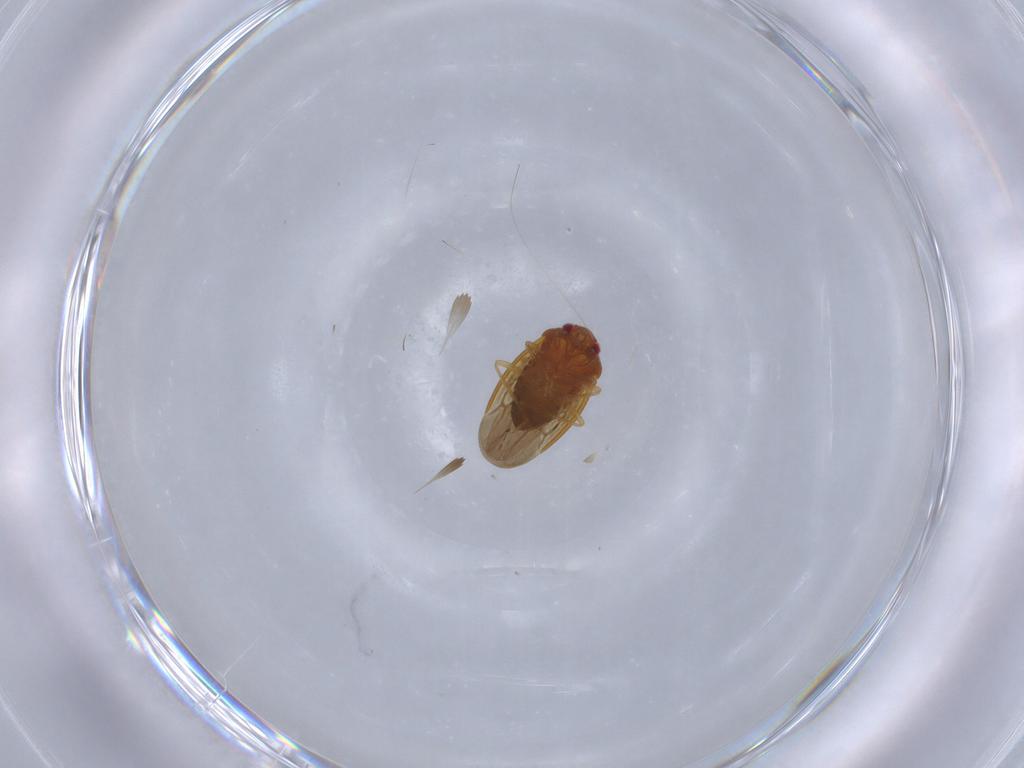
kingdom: Animalia
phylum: Arthropoda
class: Insecta
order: Hemiptera
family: Schizopteridae
